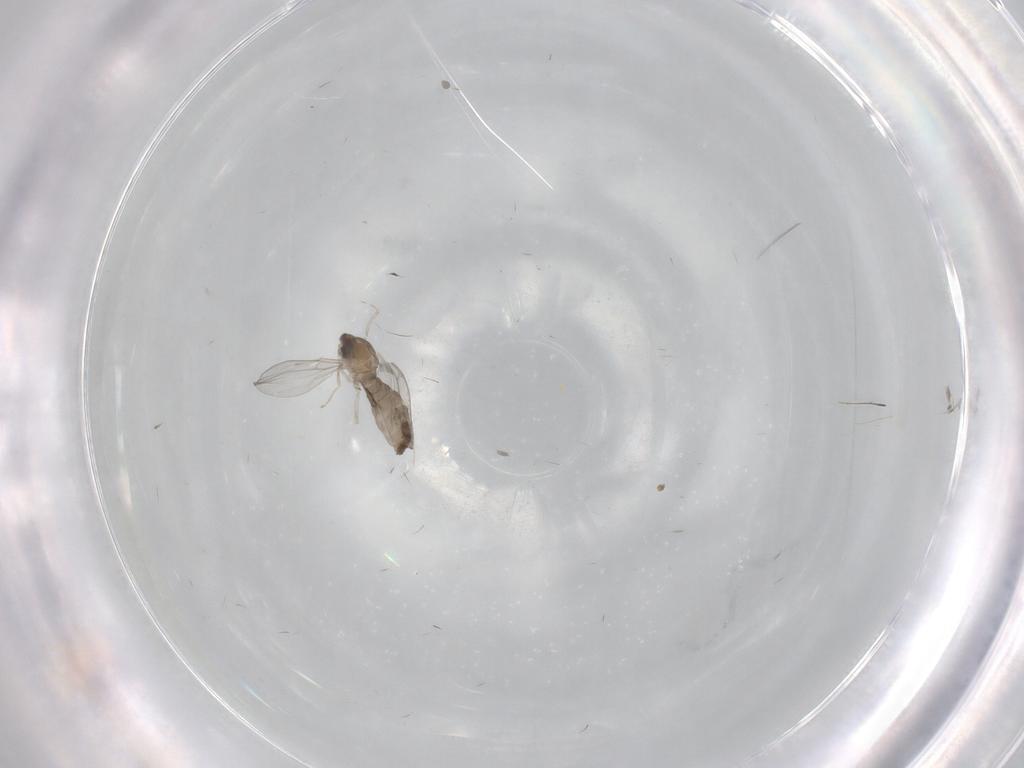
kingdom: Animalia
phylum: Arthropoda
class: Insecta
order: Diptera
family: Cecidomyiidae
